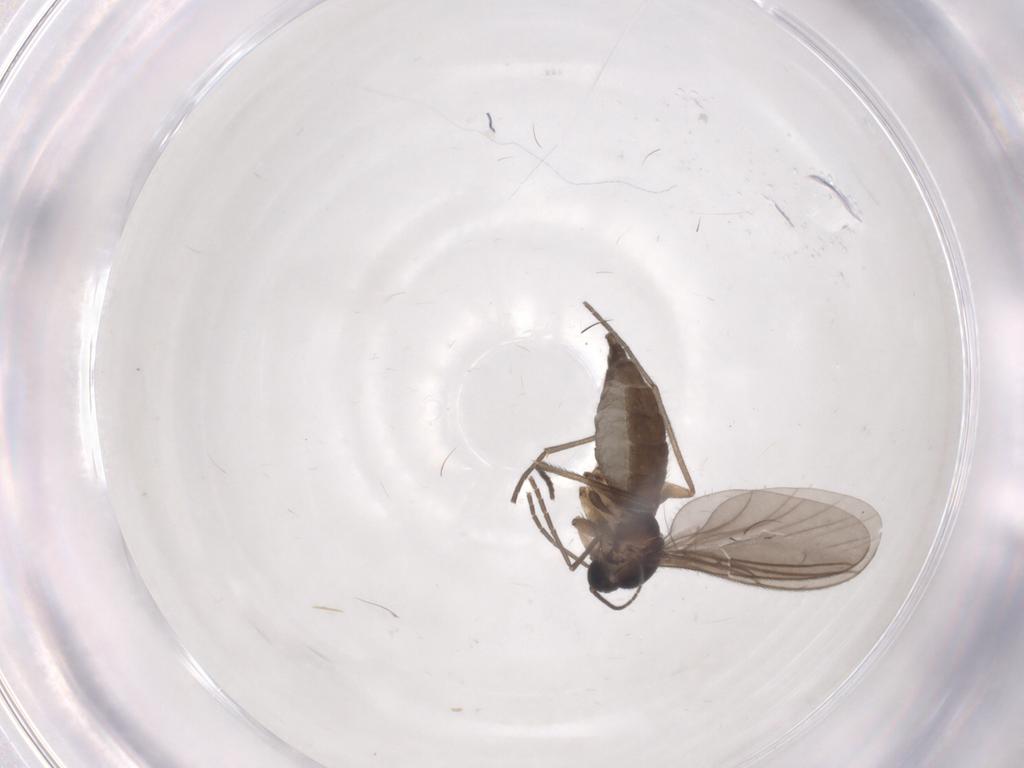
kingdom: Animalia
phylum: Arthropoda
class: Insecta
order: Diptera
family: Sciaridae
